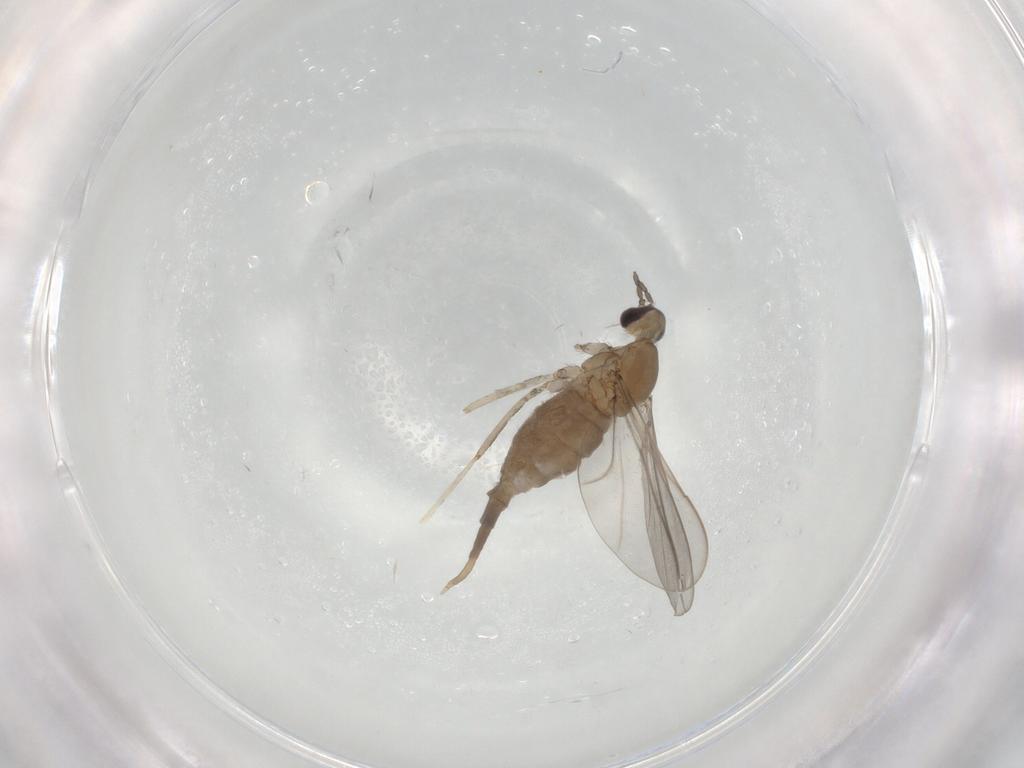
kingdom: Animalia
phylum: Arthropoda
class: Insecta
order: Diptera
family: Cecidomyiidae
